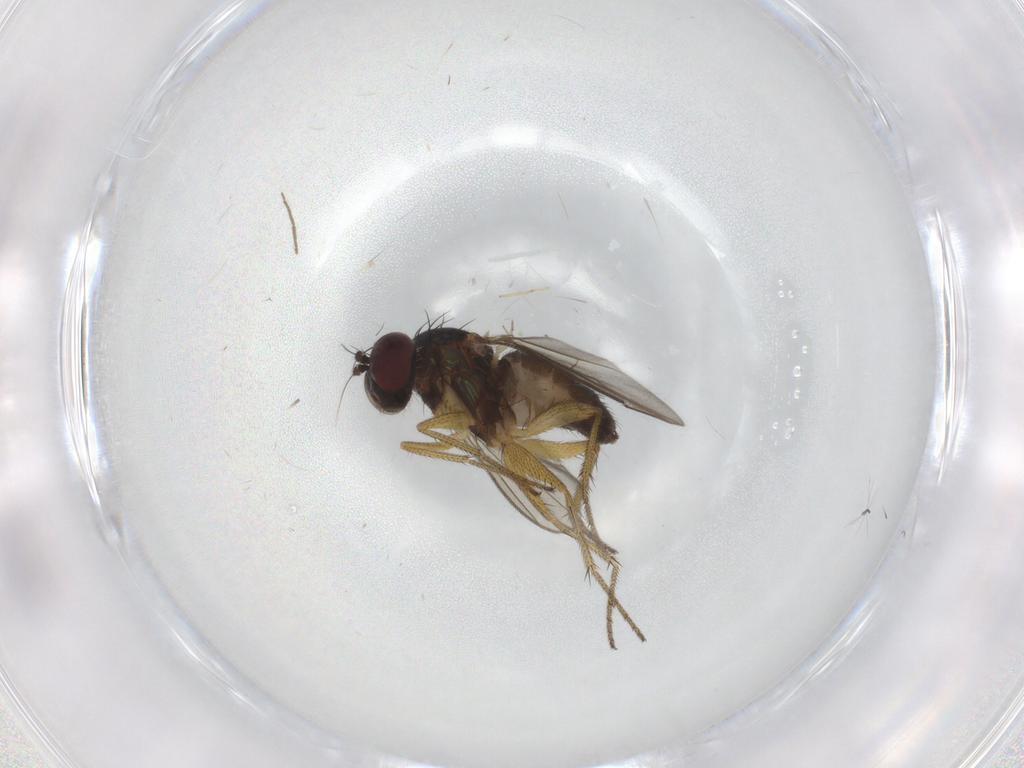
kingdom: Animalia
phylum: Arthropoda
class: Insecta
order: Diptera
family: Dolichopodidae
